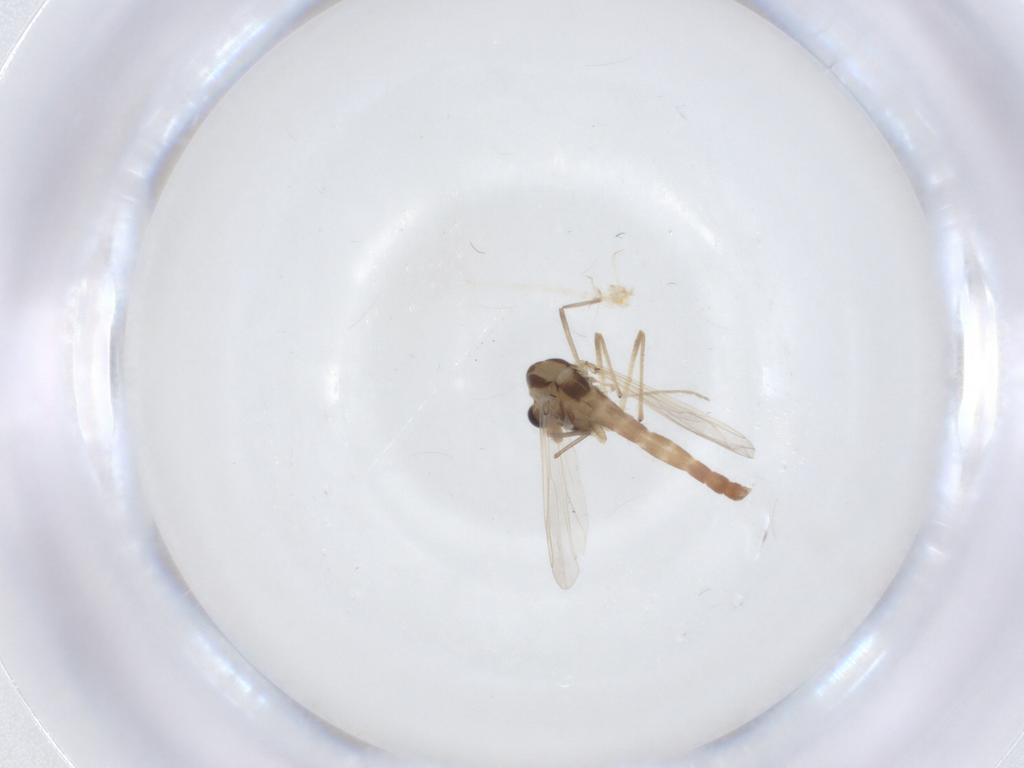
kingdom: Animalia
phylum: Arthropoda
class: Insecta
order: Diptera
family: Chironomidae
